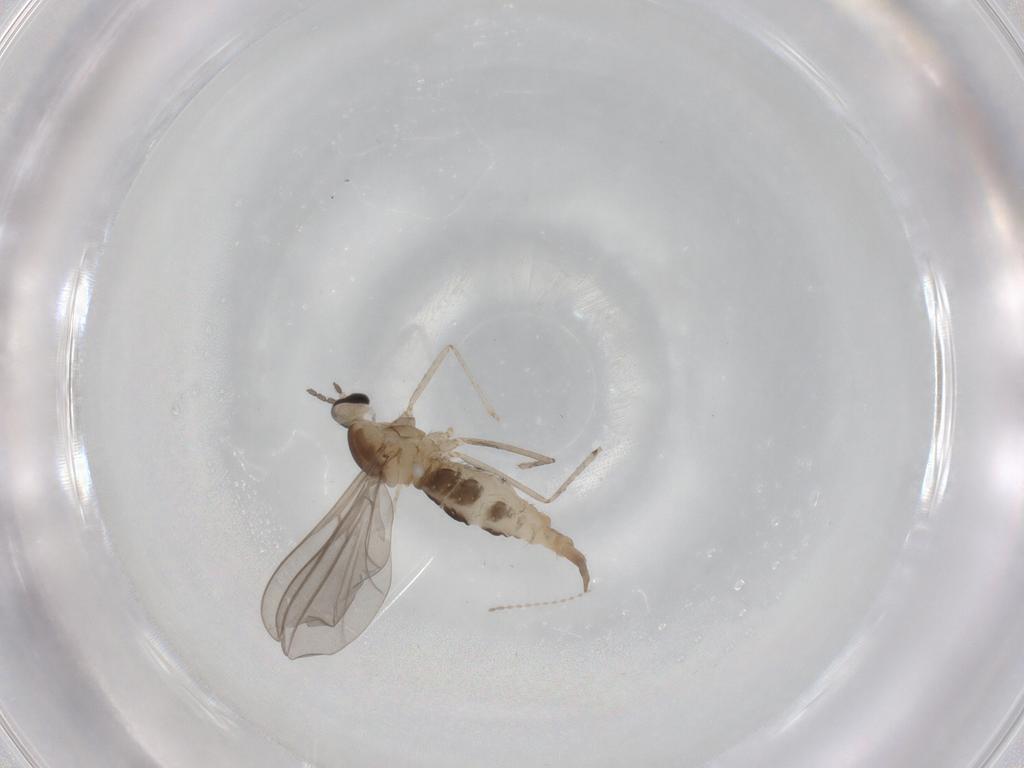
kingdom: Animalia
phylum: Arthropoda
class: Insecta
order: Diptera
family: Cecidomyiidae
